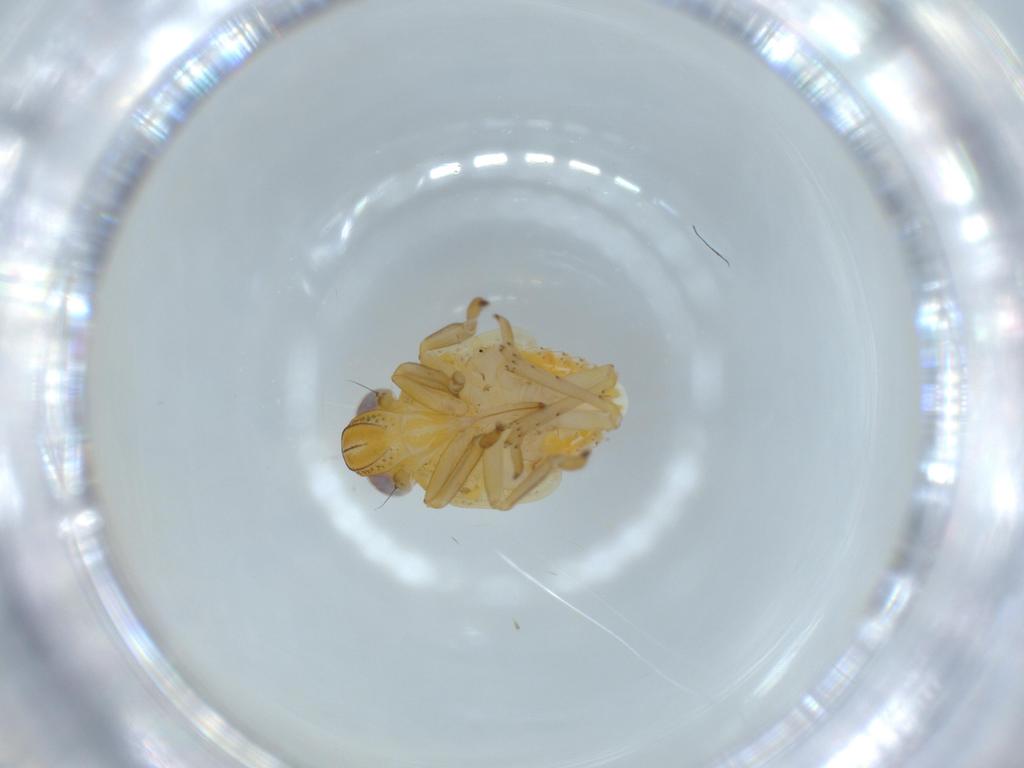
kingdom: Animalia
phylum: Arthropoda
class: Insecta
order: Hemiptera
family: Issidae
